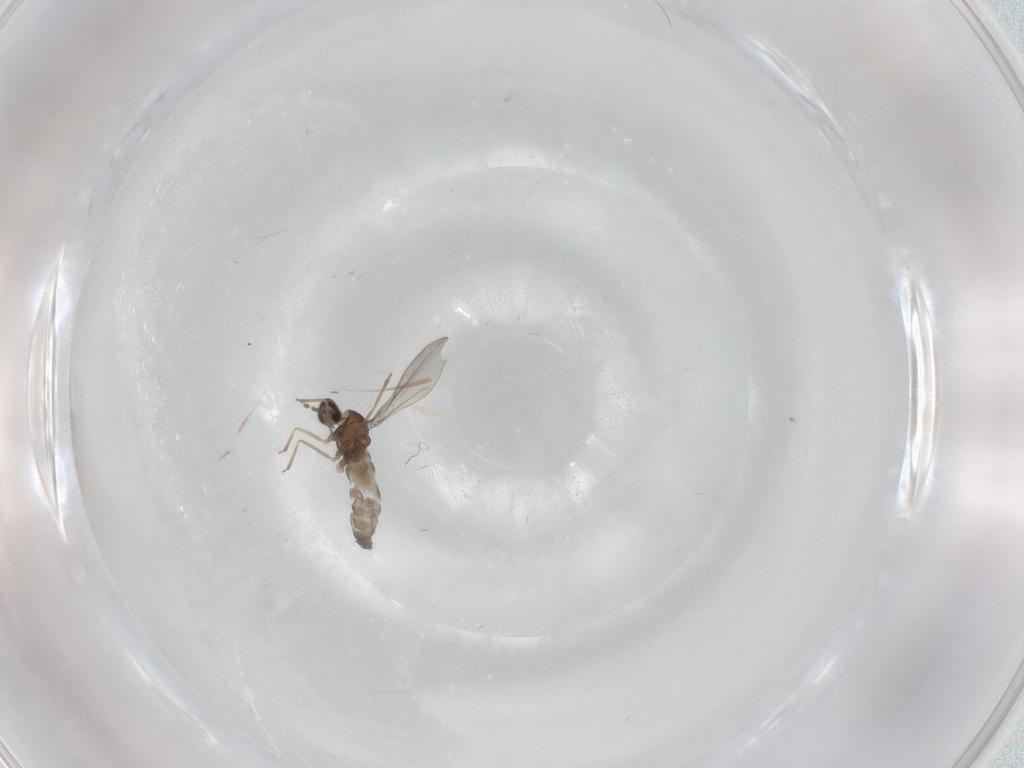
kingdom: Animalia
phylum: Arthropoda
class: Insecta
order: Diptera
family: Cecidomyiidae
